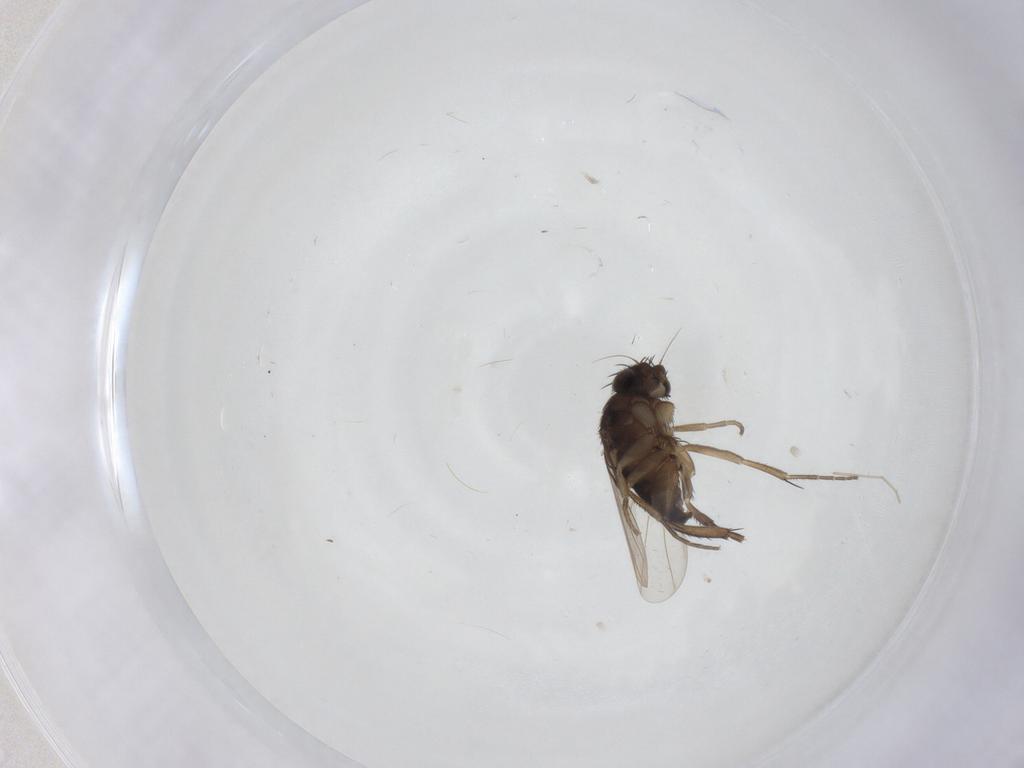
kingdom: Animalia
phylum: Arthropoda
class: Insecta
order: Diptera
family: Phoridae
